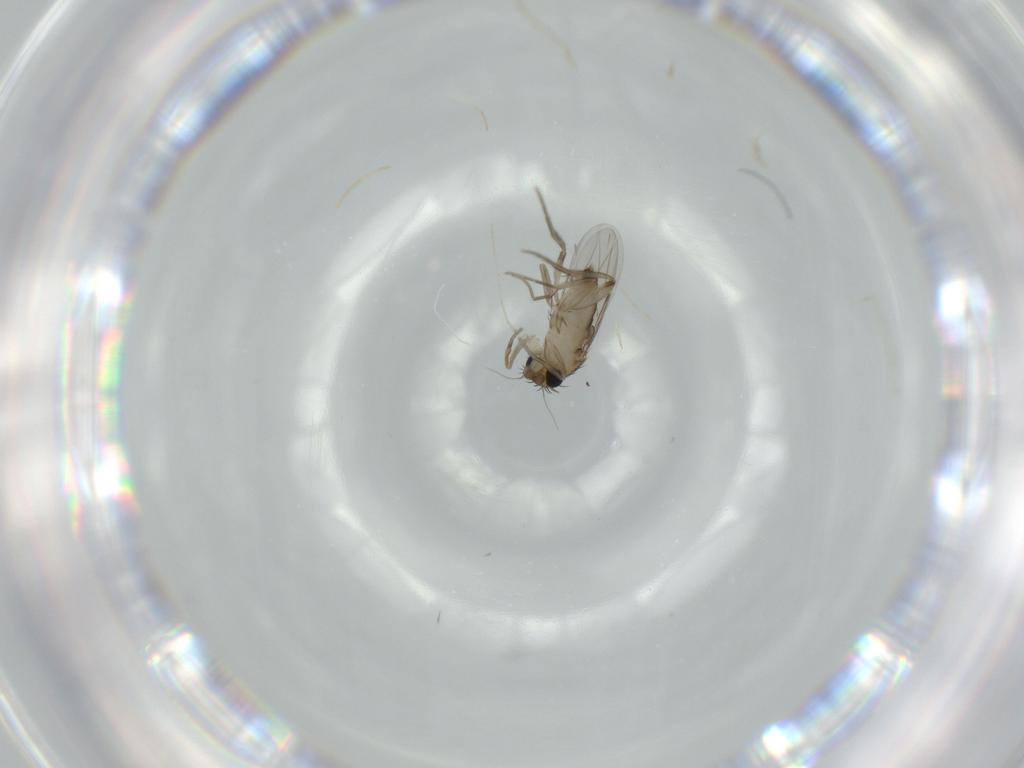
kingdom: Animalia
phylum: Arthropoda
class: Insecta
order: Diptera
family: Phoridae
